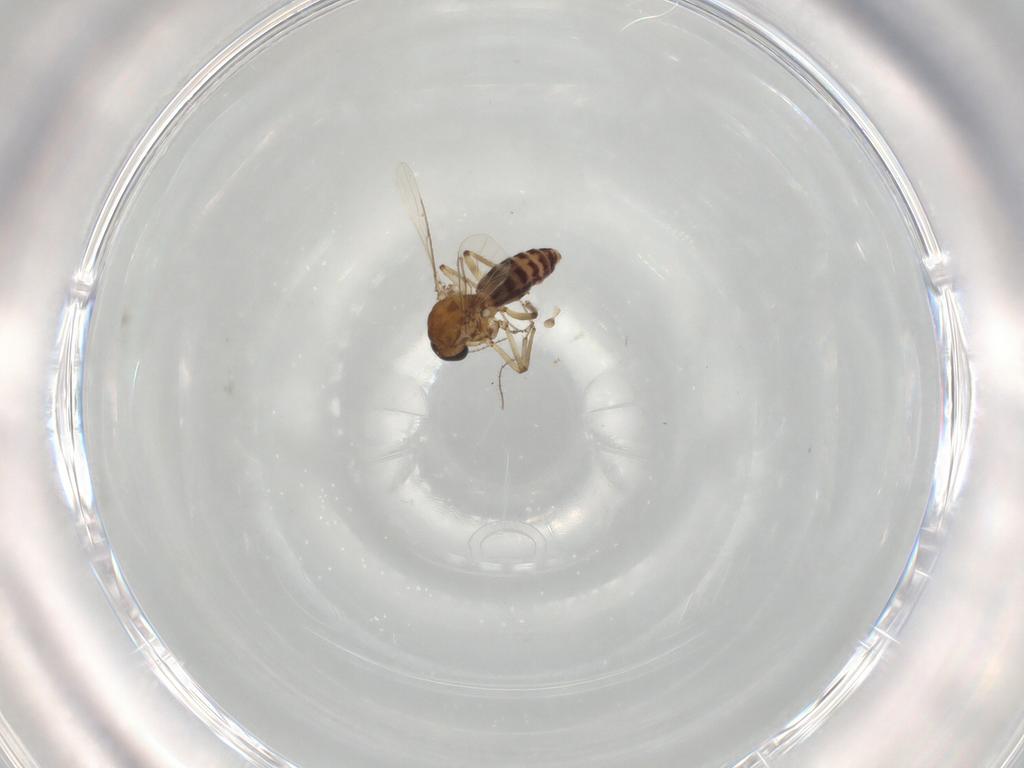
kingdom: Animalia
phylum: Arthropoda
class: Insecta
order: Diptera
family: Ceratopogonidae
